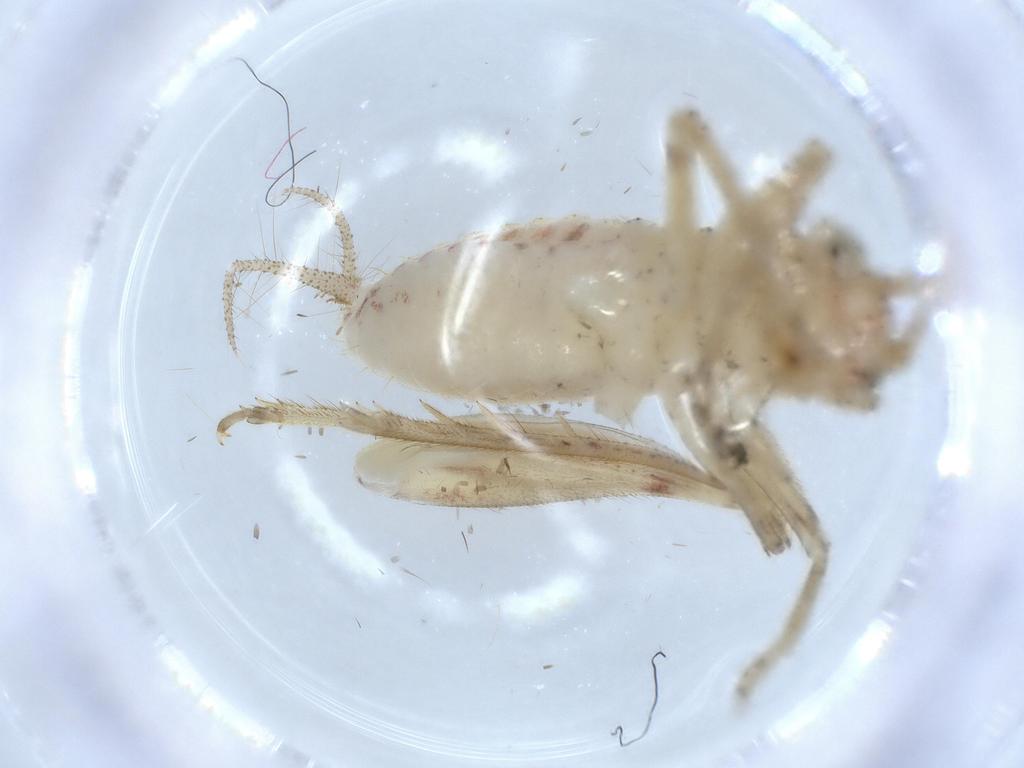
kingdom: Animalia
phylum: Arthropoda
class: Insecta
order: Orthoptera
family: Trigonidiidae
